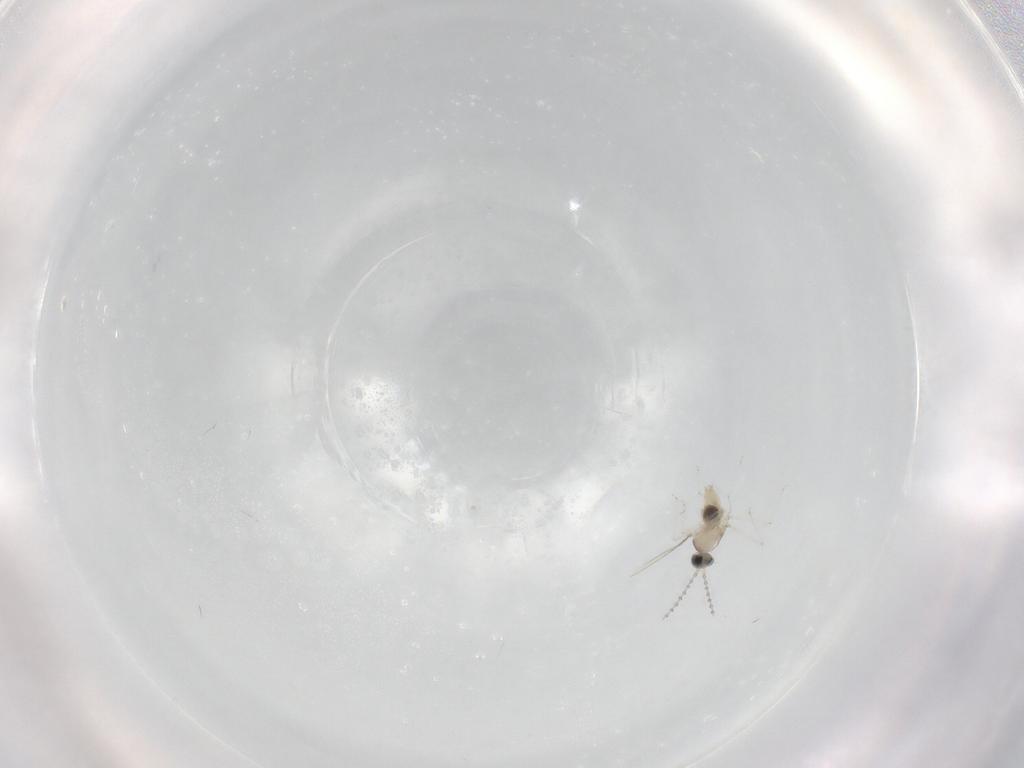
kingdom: Animalia
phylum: Arthropoda
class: Insecta
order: Diptera
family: Cecidomyiidae
